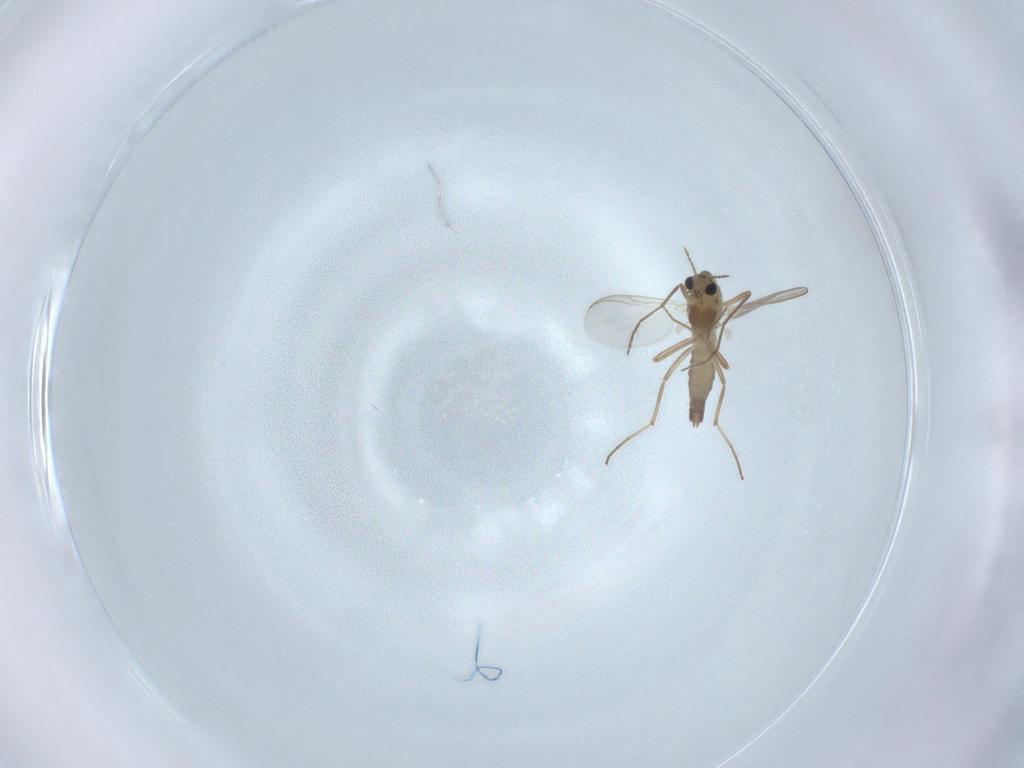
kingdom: Animalia
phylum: Arthropoda
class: Insecta
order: Diptera
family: Chironomidae
